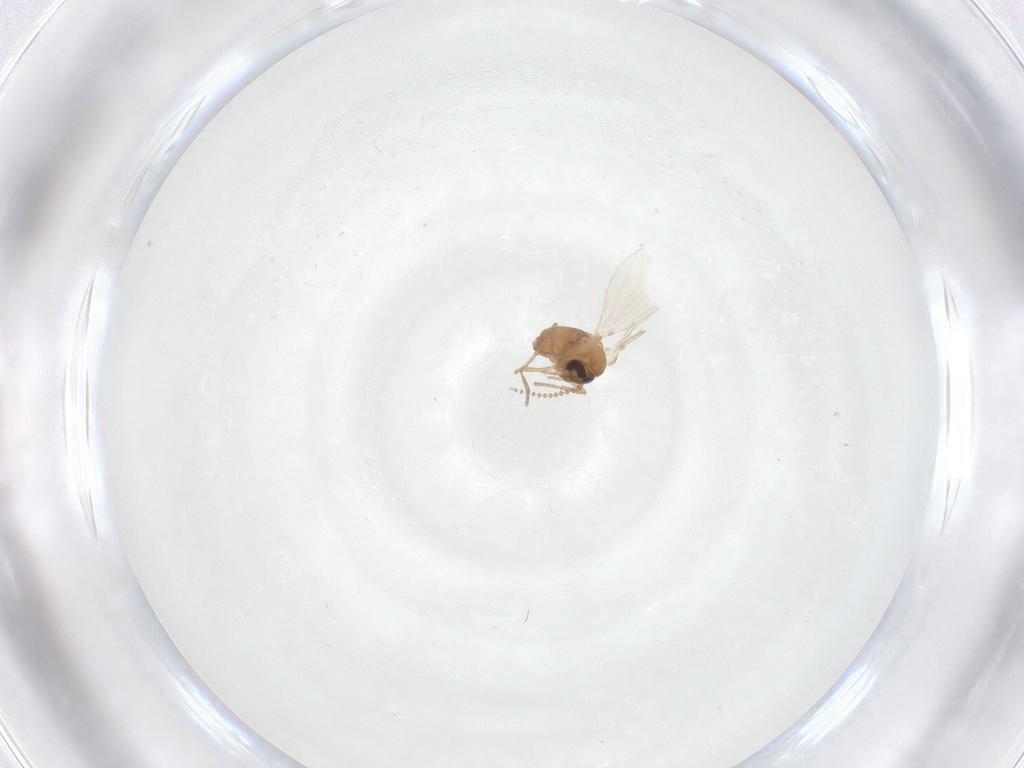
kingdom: Animalia
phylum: Arthropoda
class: Insecta
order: Diptera
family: Psychodidae
